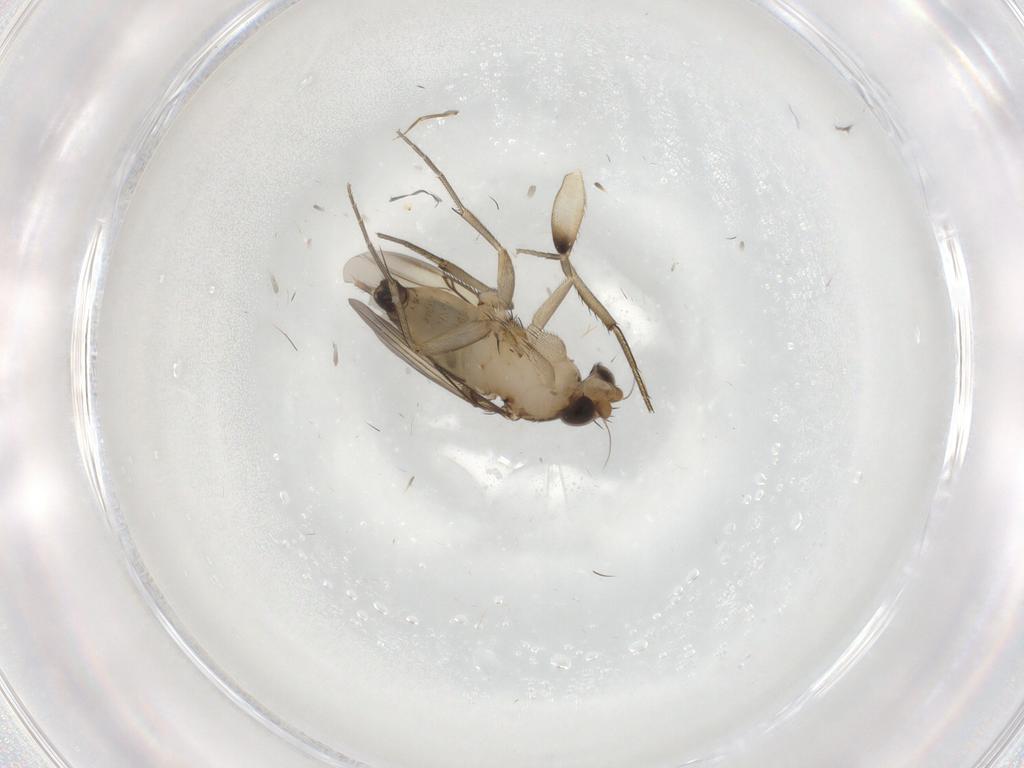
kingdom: Animalia
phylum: Arthropoda
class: Insecta
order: Diptera
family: Phoridae
